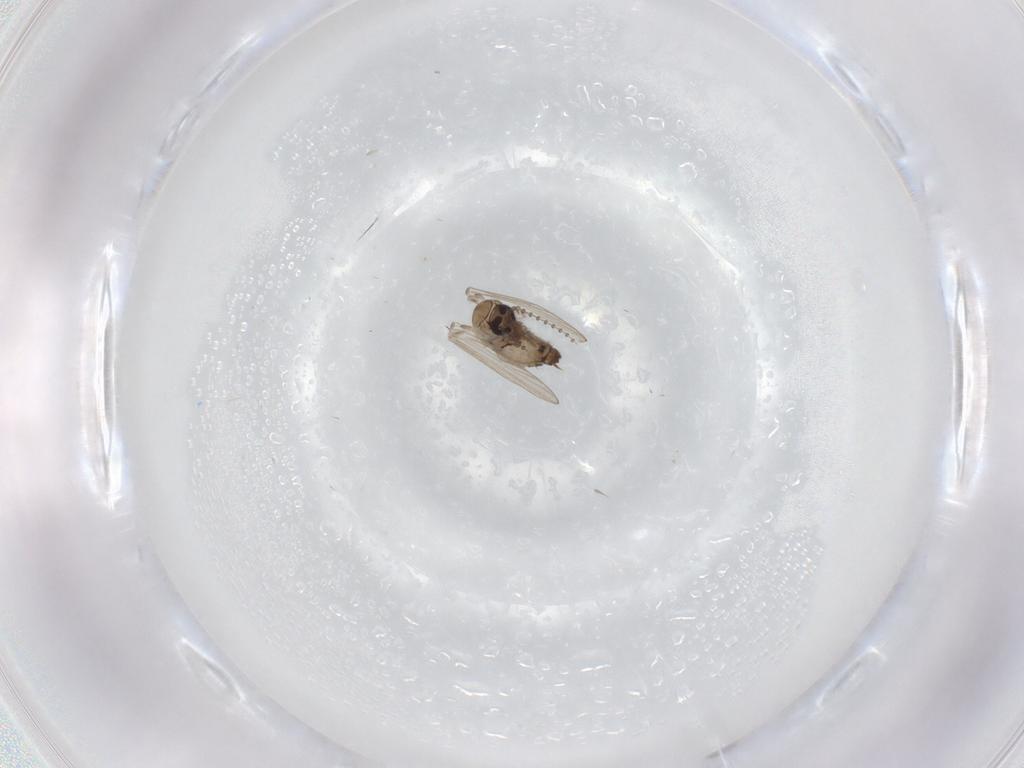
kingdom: Animalia
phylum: Arthropoda
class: Insecta
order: Diptera
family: Psychodidae
